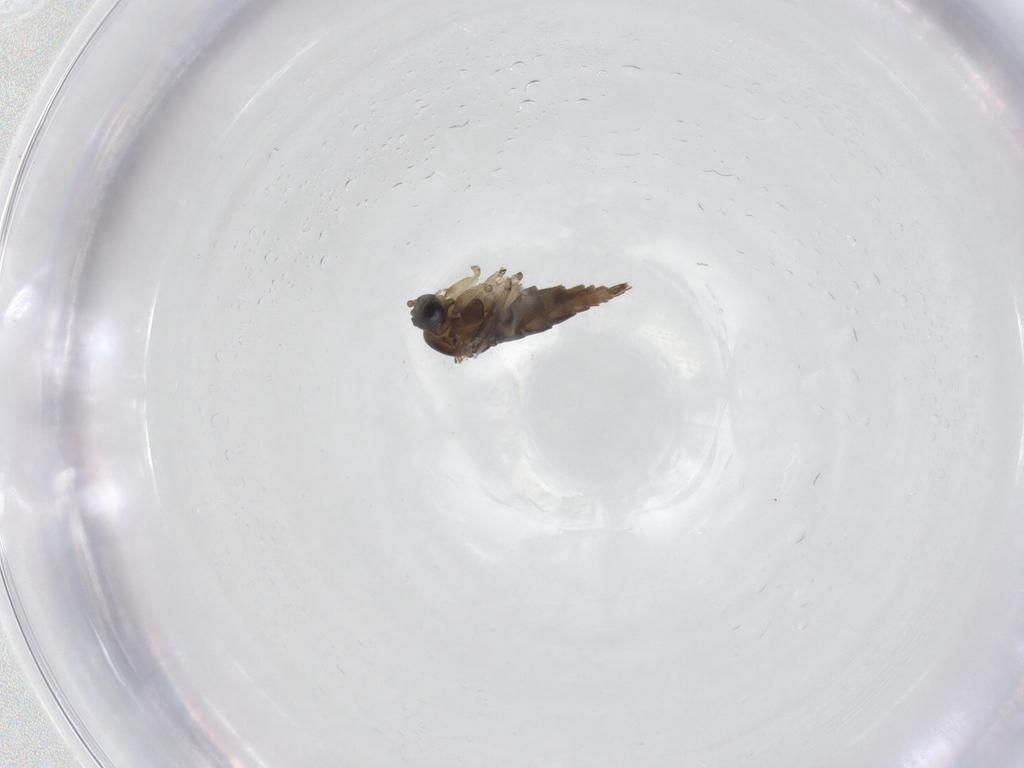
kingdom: Animalia
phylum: Arthropoda
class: Insecta
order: Diptera
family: Sciaridae
